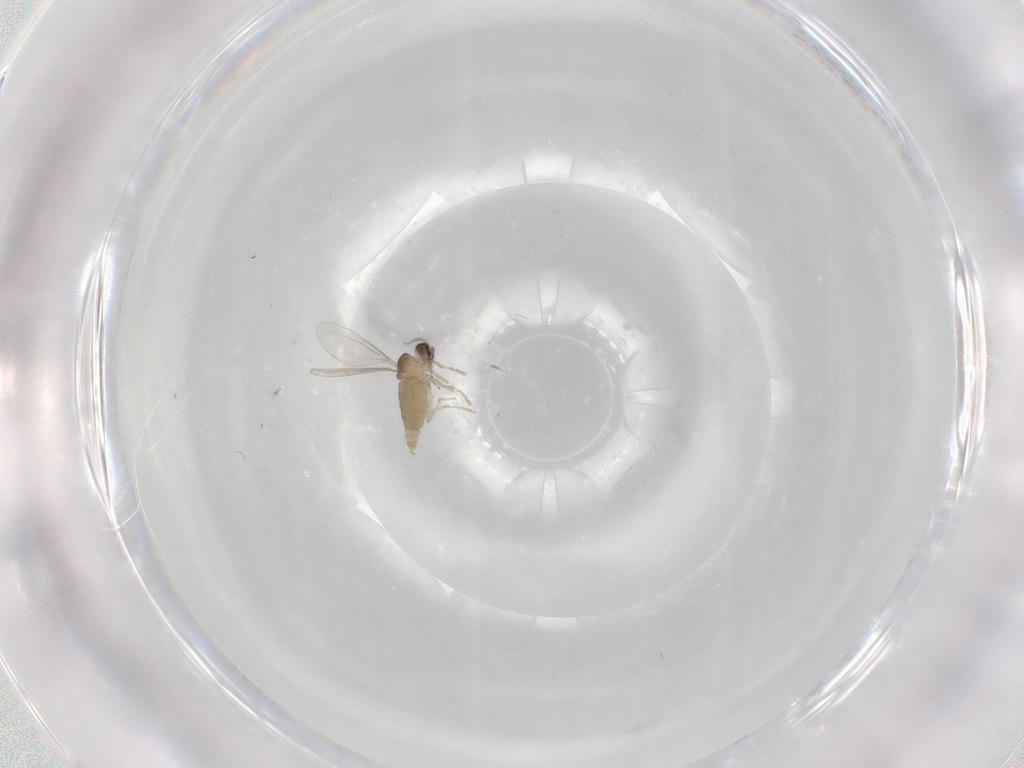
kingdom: Animalia
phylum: Arthropoda
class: Insecta
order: Diptera
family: Cecidomyiidae
